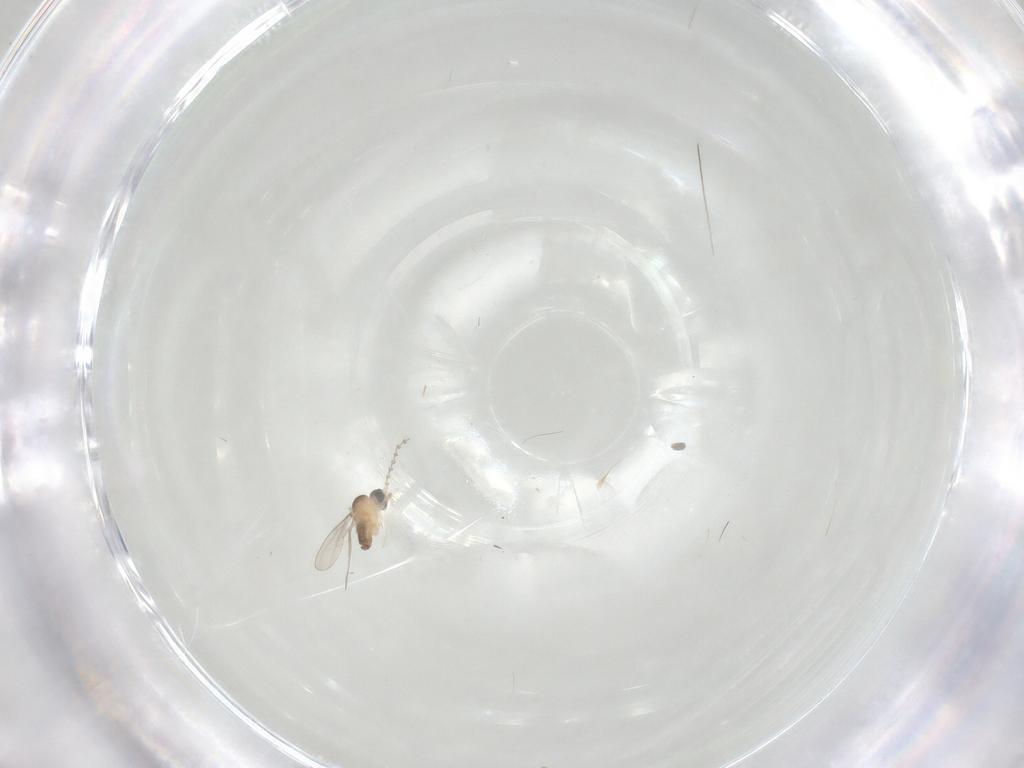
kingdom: Animalia
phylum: Arthropoda
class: Insecta
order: Diptera
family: Cecidomyiidae
